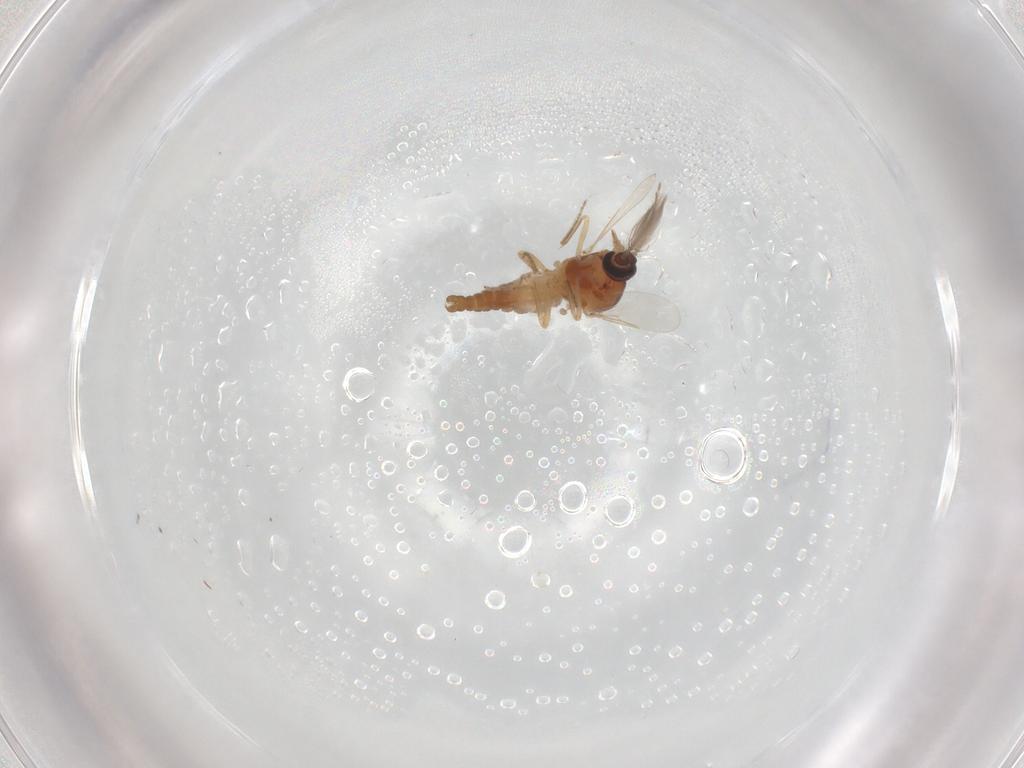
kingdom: Animalia
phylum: Arthropoda
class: Insecta
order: Diptera
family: Ceratopogonidae
